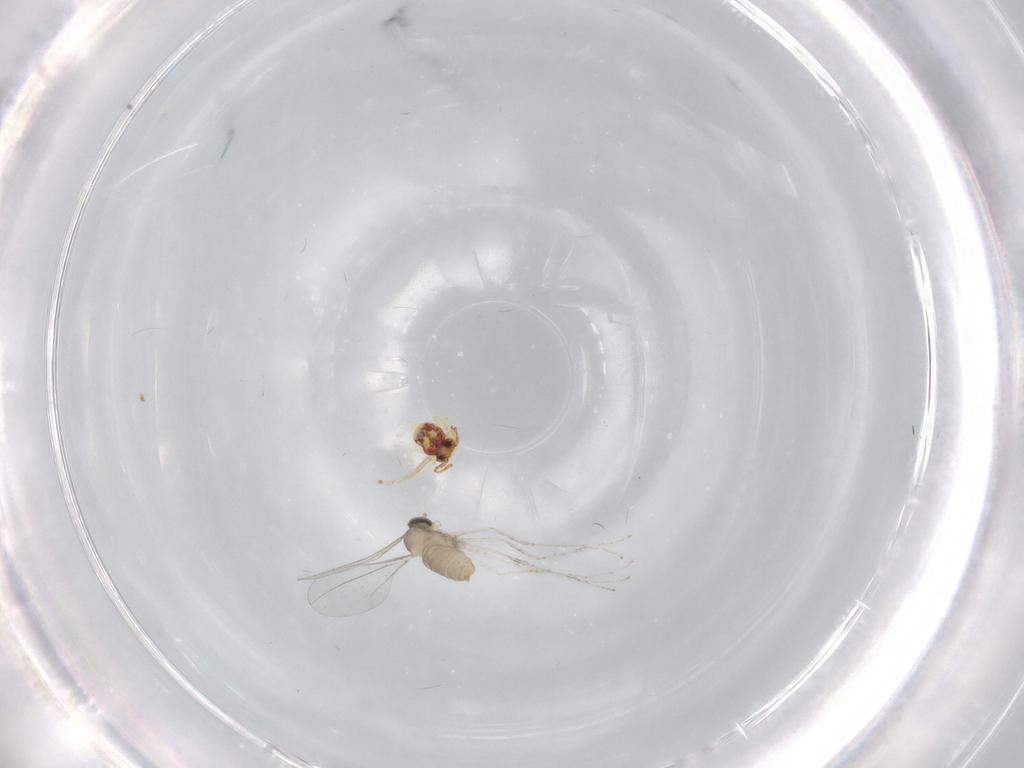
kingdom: Animalia
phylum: Arthropoda
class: Insecta
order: Diptera
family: Cecidomyiidae
